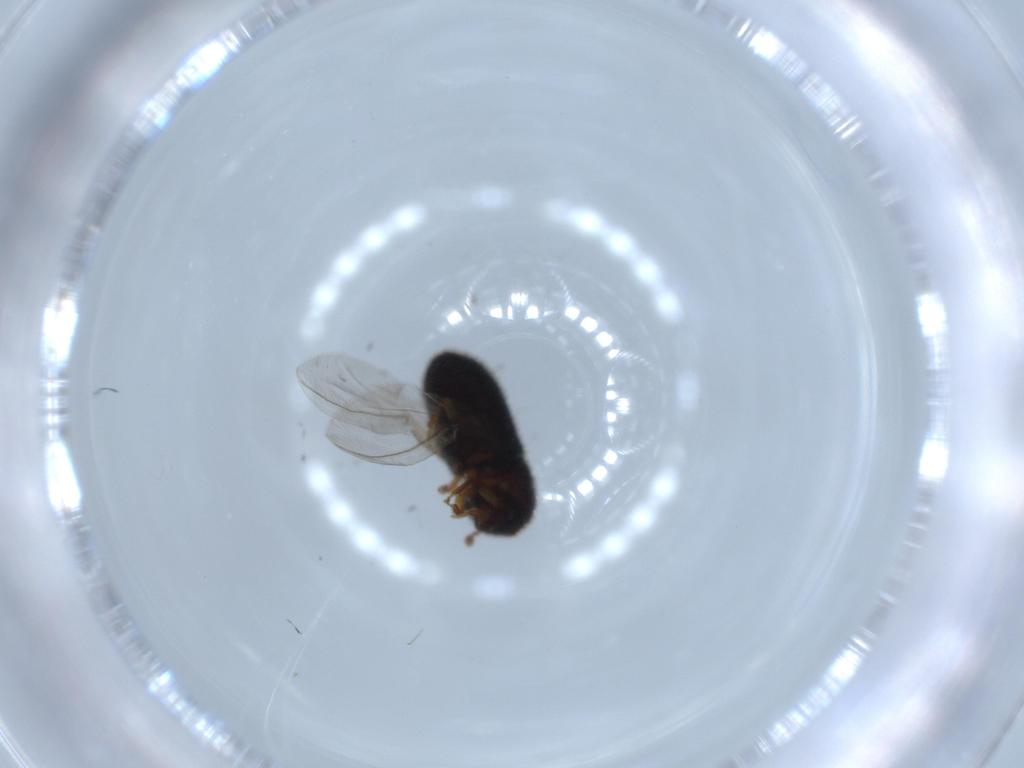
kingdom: Animalia
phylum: Arthropoda
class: Insecta
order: Coleoptera
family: Curculionidae
